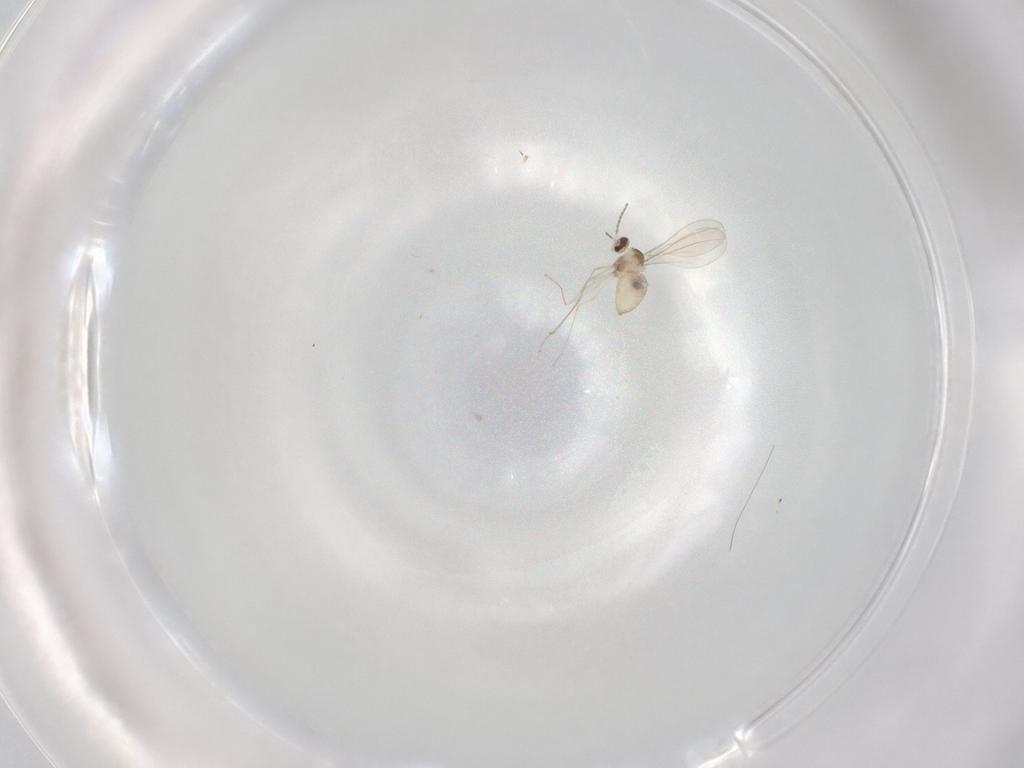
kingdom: Animalia
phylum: Arthropoda
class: Insecta
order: Diptera
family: Cecidomyiidae
